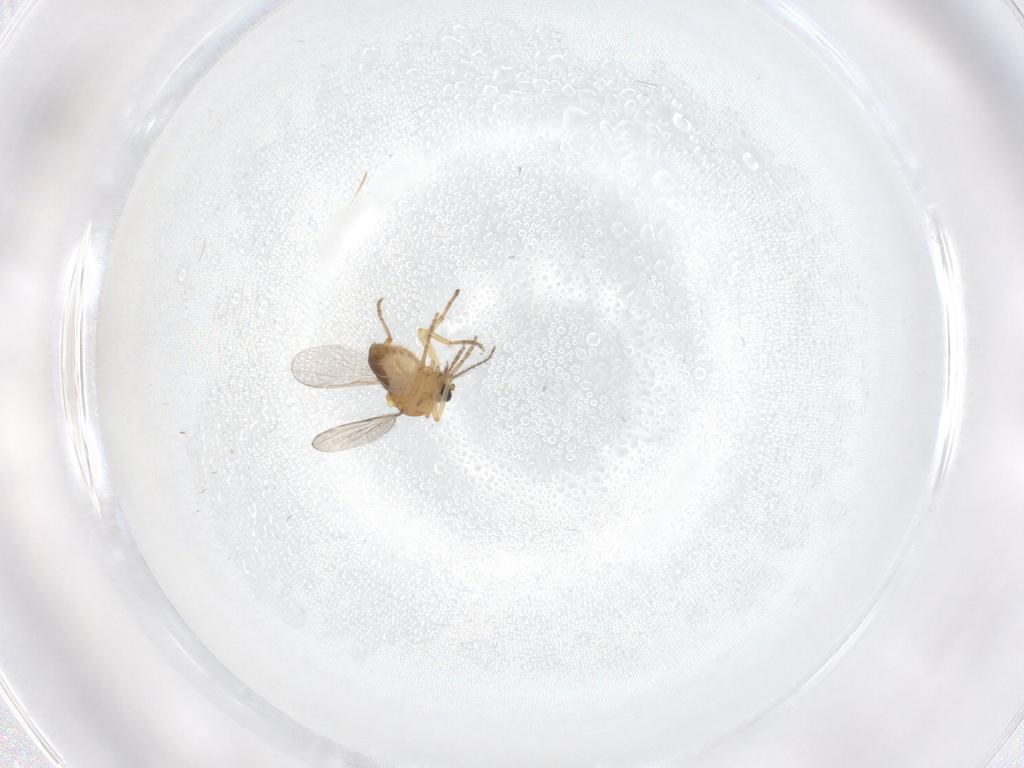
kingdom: Animalia
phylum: Arthropoda
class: Insecta
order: Diptera
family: Ceratopogonidae
